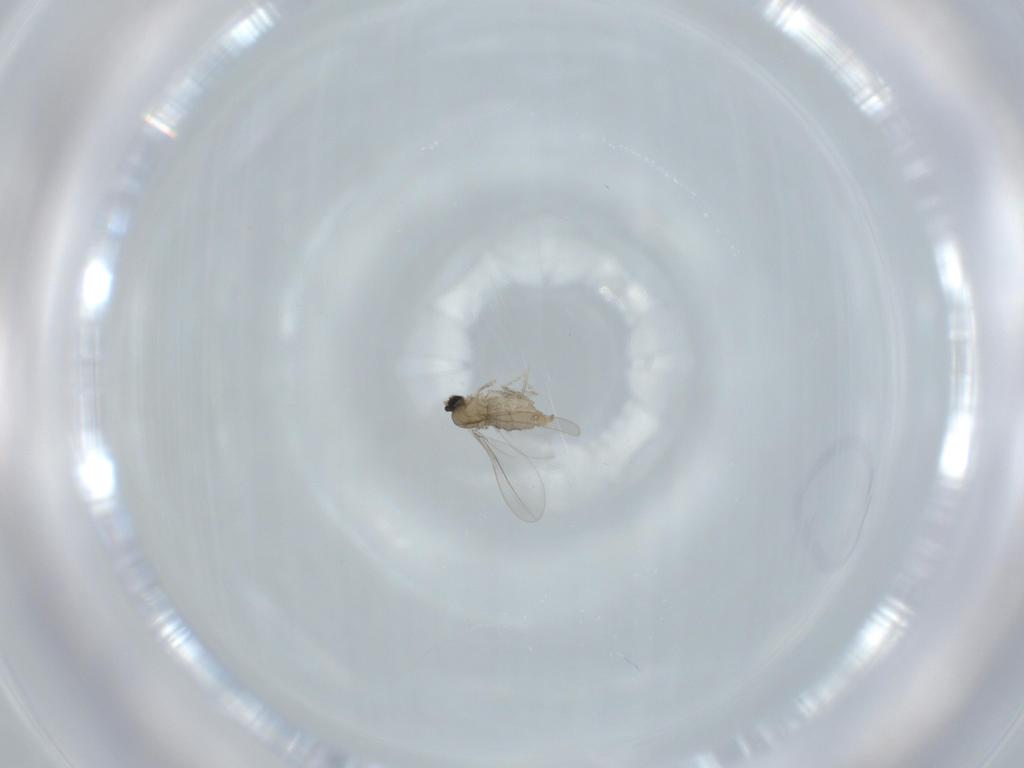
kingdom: Animalia
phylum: Arthropoda
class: Insecta
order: Diptera
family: Cecidomyiidae
